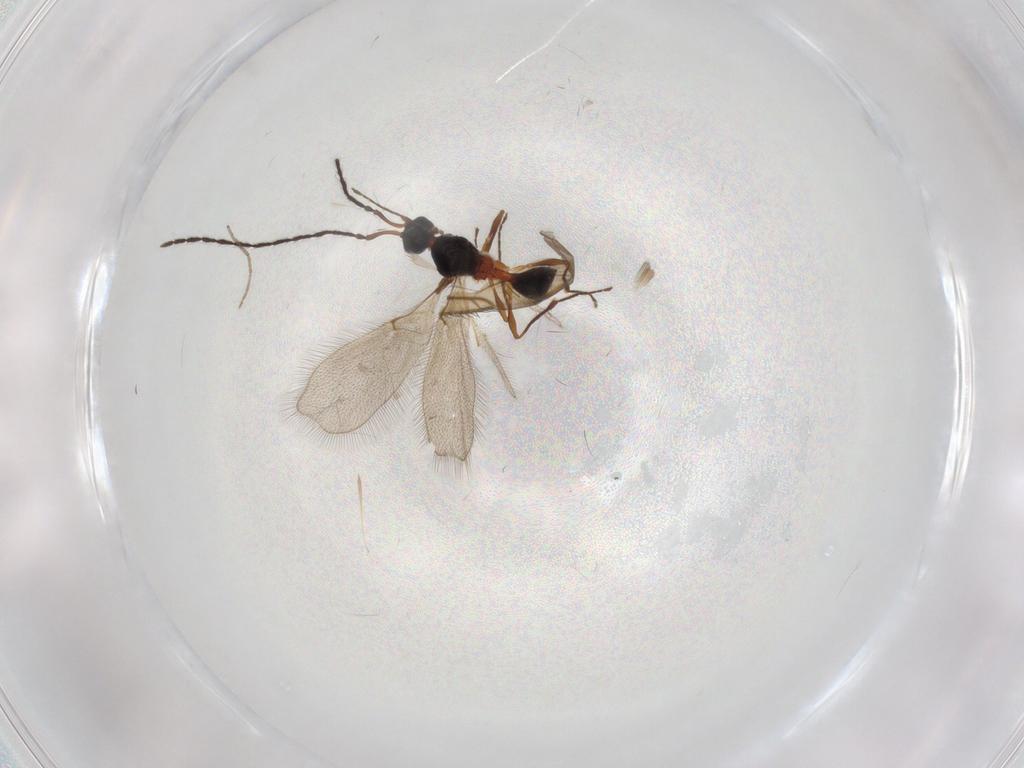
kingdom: Animalia
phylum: Arthropoda
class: Insecta
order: Hymenoptera
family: Diapriidae
